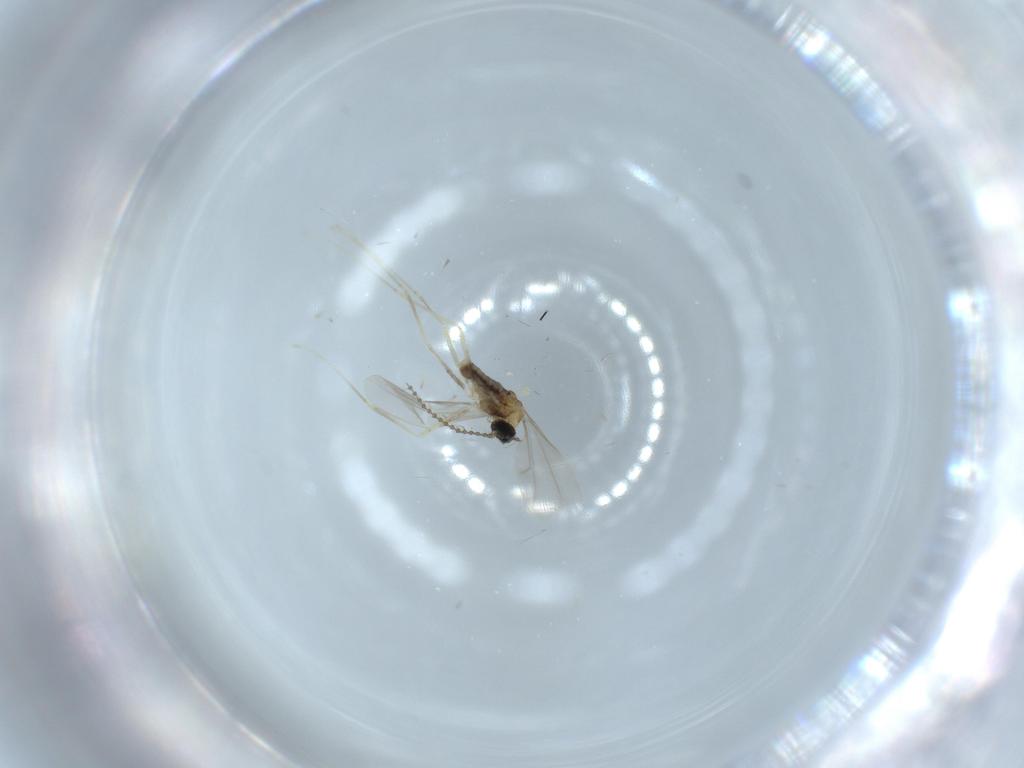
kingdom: Animalia
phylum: Arthropoda
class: Insecta
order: Diptera
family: Cecidomyiidae
